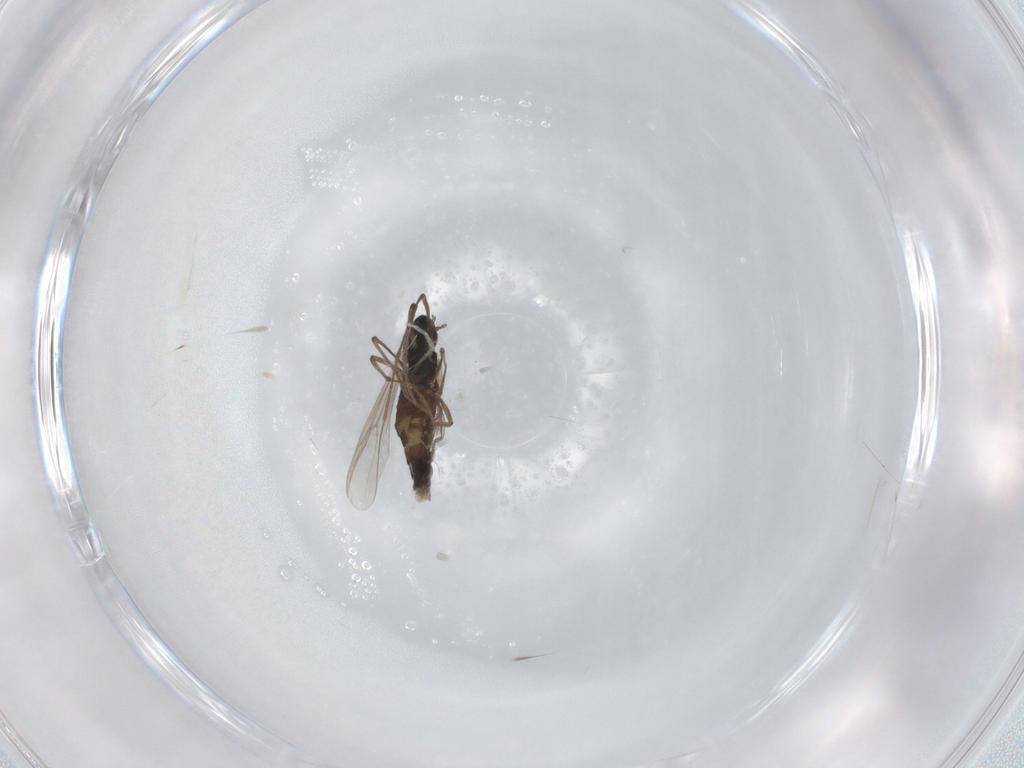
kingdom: Animalia
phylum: Arthropoda
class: Insecta
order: Diptera
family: Chironomidae
